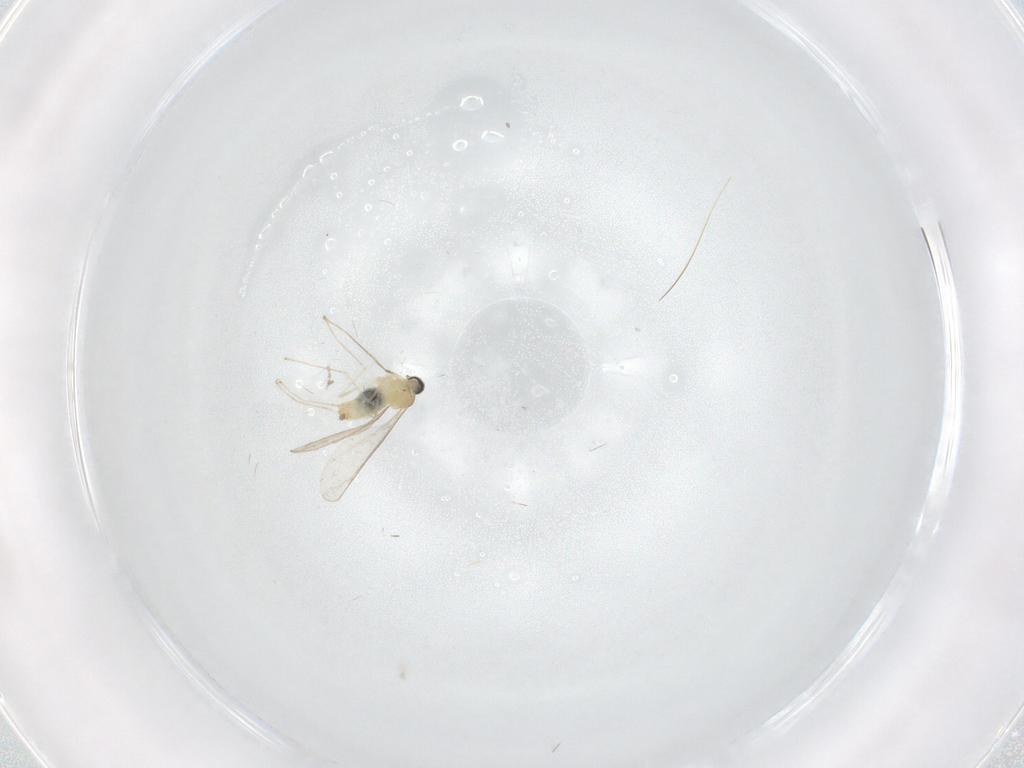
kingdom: Animalia
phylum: Arthropoda
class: Insecta
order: Diptera
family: Cecidomyiidae
